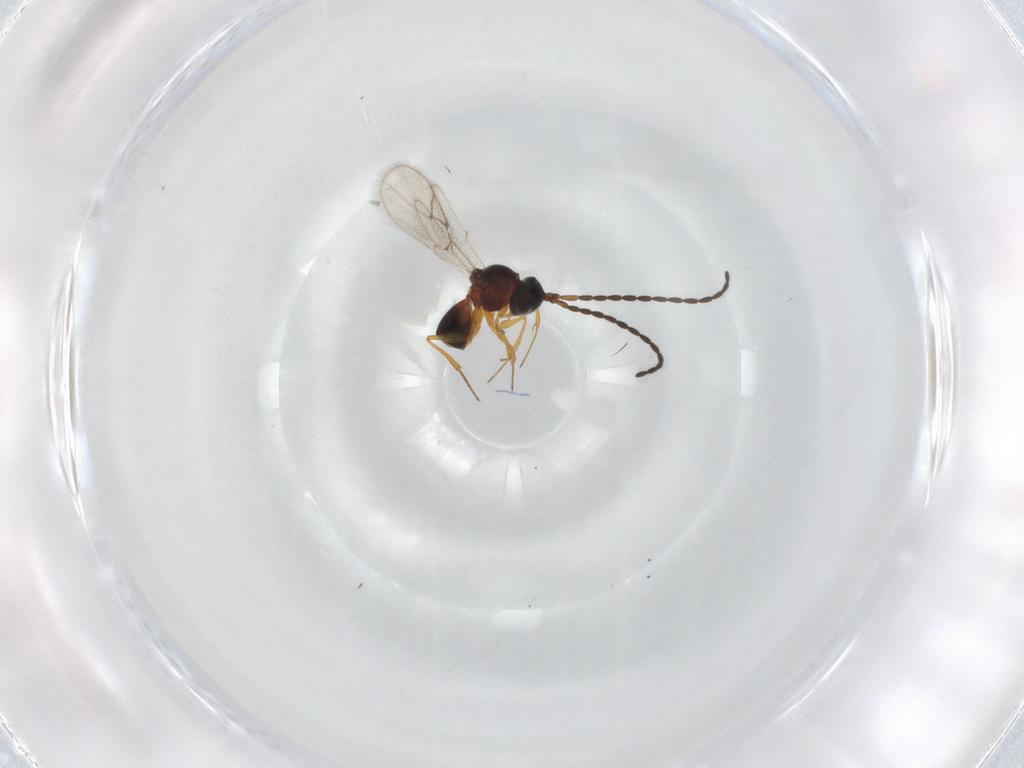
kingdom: Animalia
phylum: Arthropoda
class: Insecta
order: Hymenoptera
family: Figitidae
